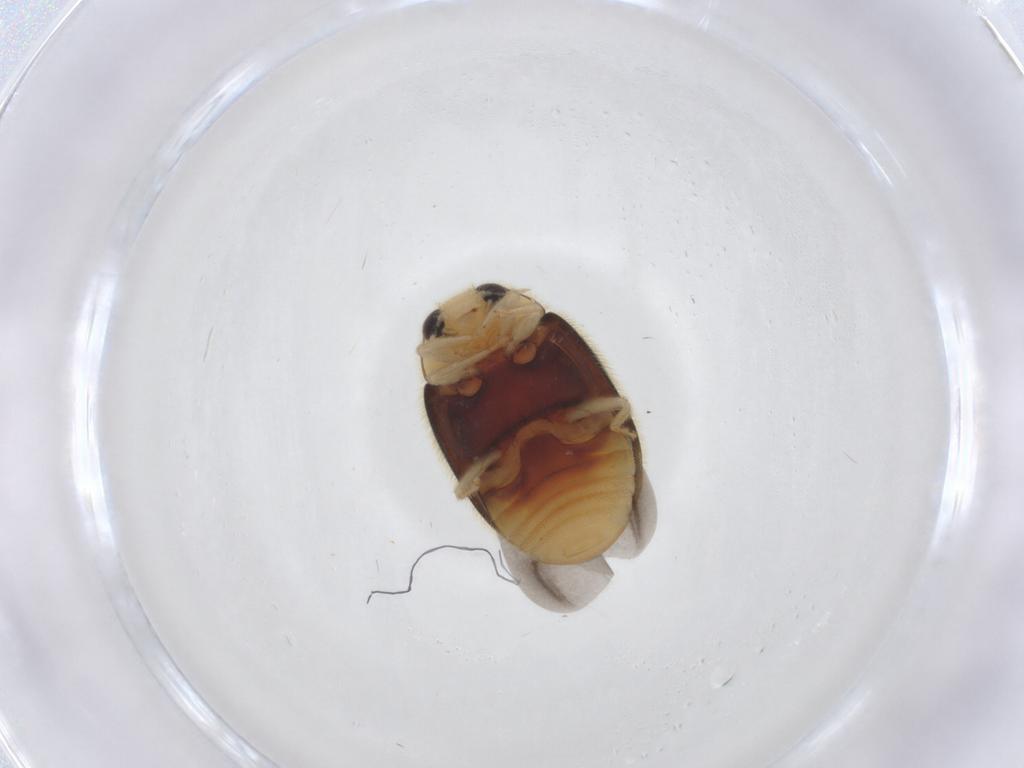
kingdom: Animalia
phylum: Arthropoda
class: Insecta
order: Coleoptera
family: Coccinellidae
